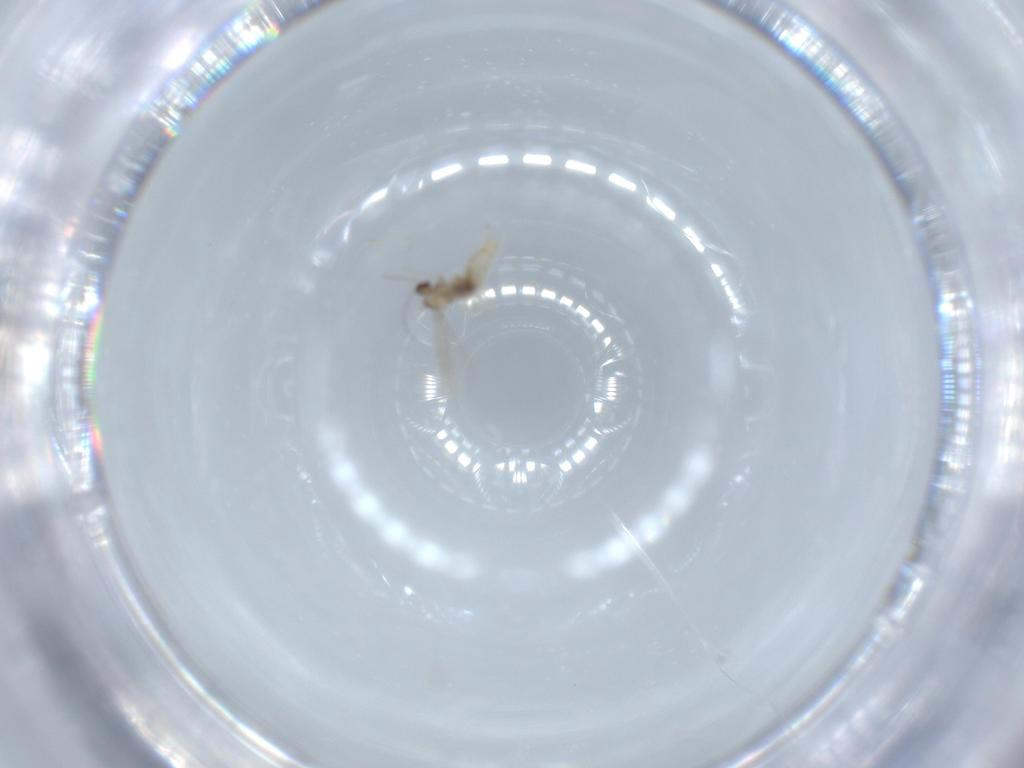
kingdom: Animalia
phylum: Arthropoda
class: Insecta
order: Diptera
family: Cecidomyiidae
